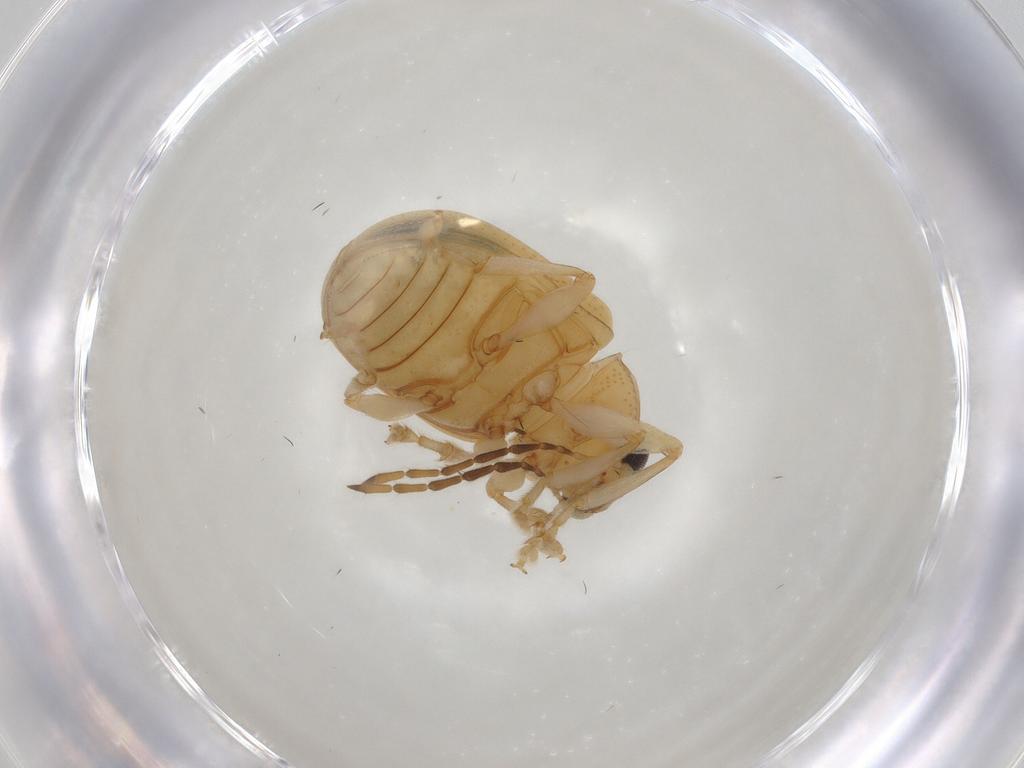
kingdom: Animalia
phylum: Arthropoda
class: Insecta
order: Coleoptera
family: Chrysomelidae
